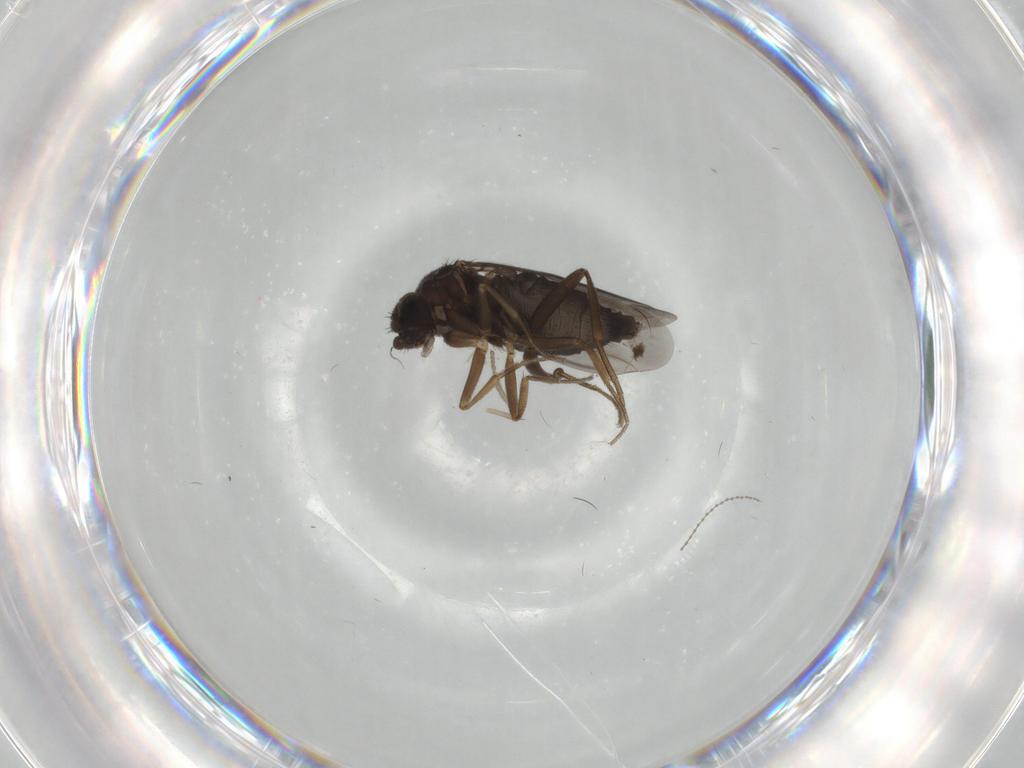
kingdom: Animalia
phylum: Arthropoda
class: Insecta
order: Diptera
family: Phoridae
